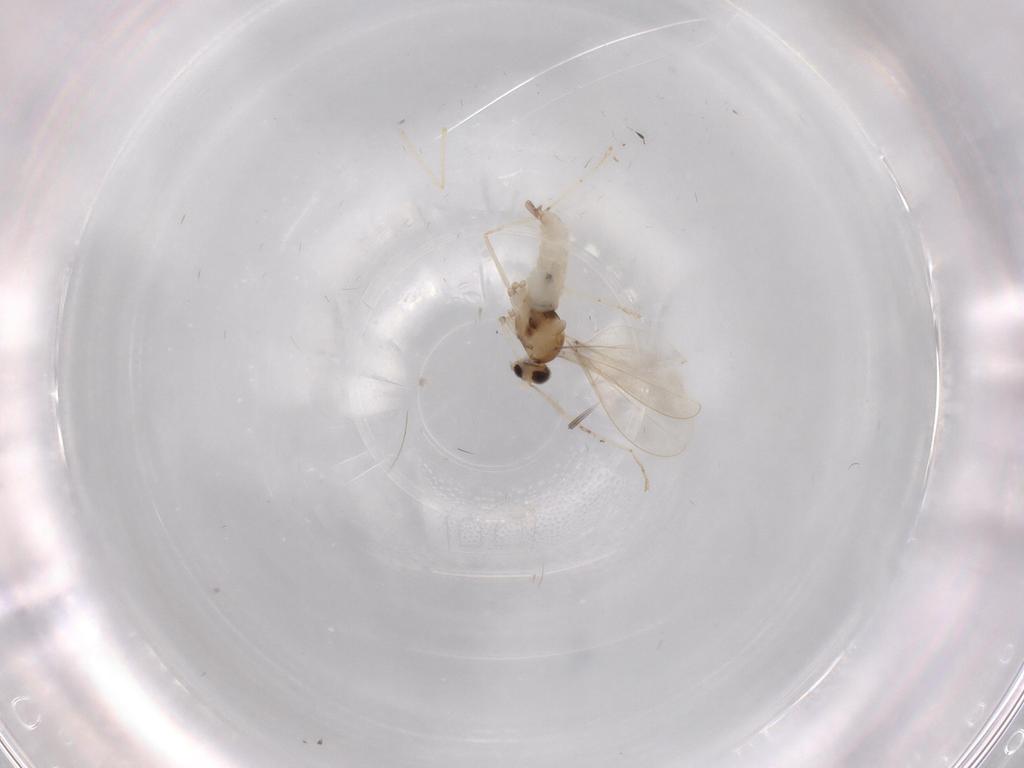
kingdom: Animalia
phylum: Arthropoda
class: Insecta
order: Diptera
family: Cecidomyiidae
